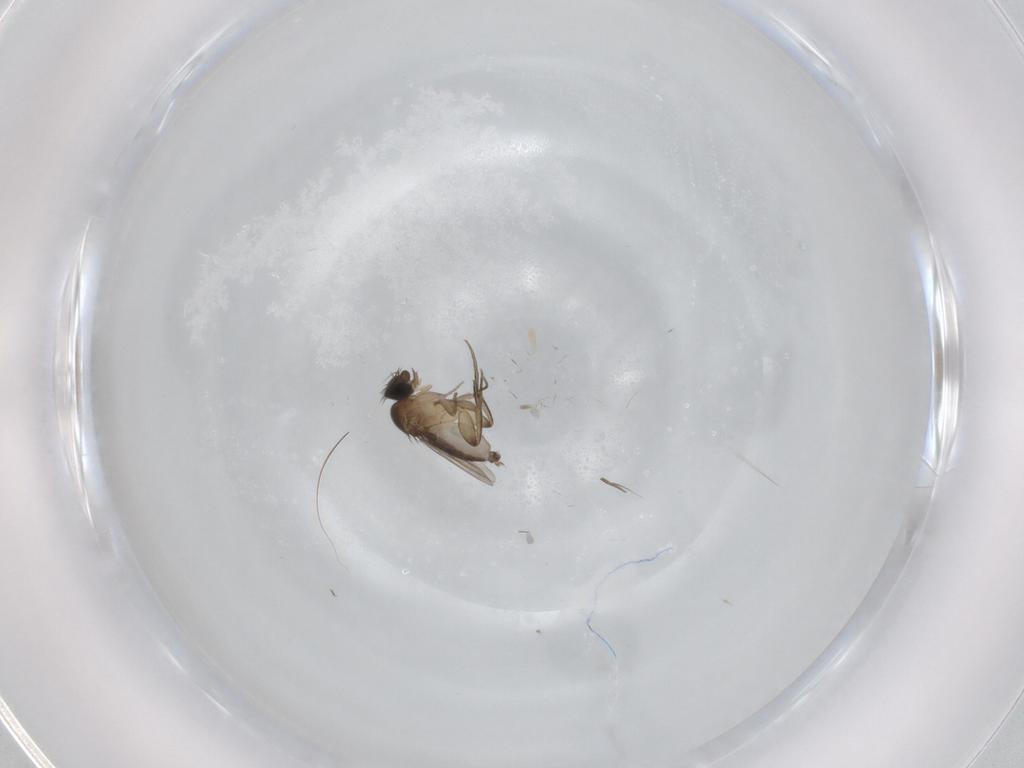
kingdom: Animalia
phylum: Arthropoda
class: Insecta
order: Diptera
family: Phoridae
